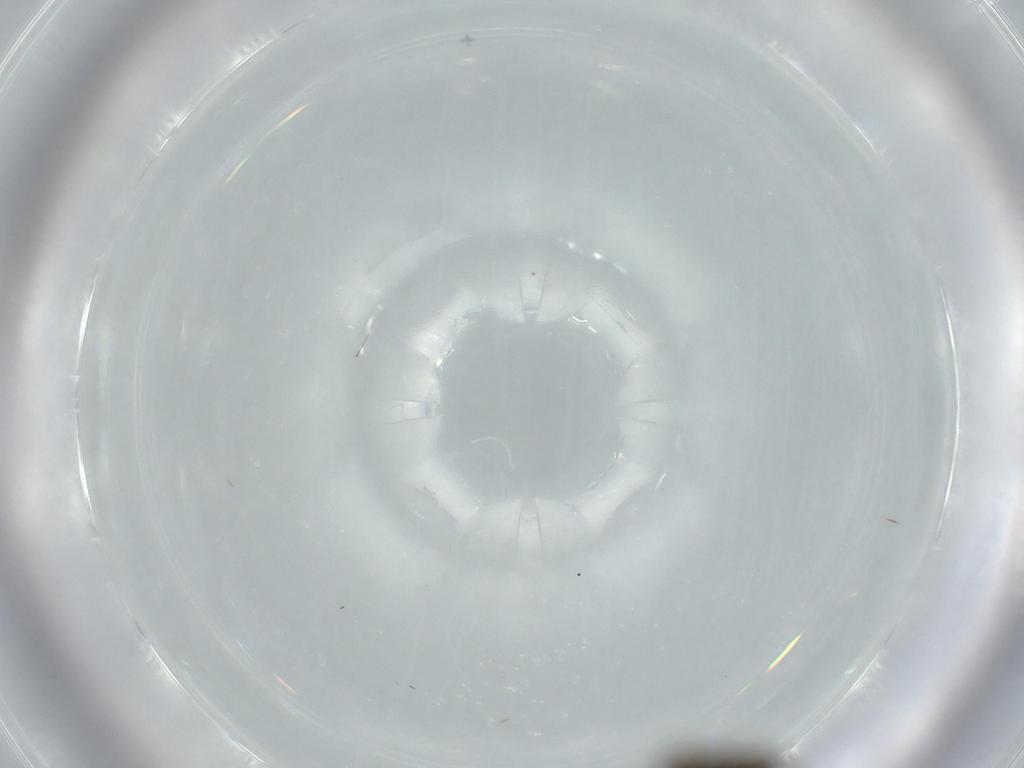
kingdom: Animalia
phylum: Arthropoda
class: Insecta
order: Diptera
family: Psychodidae
